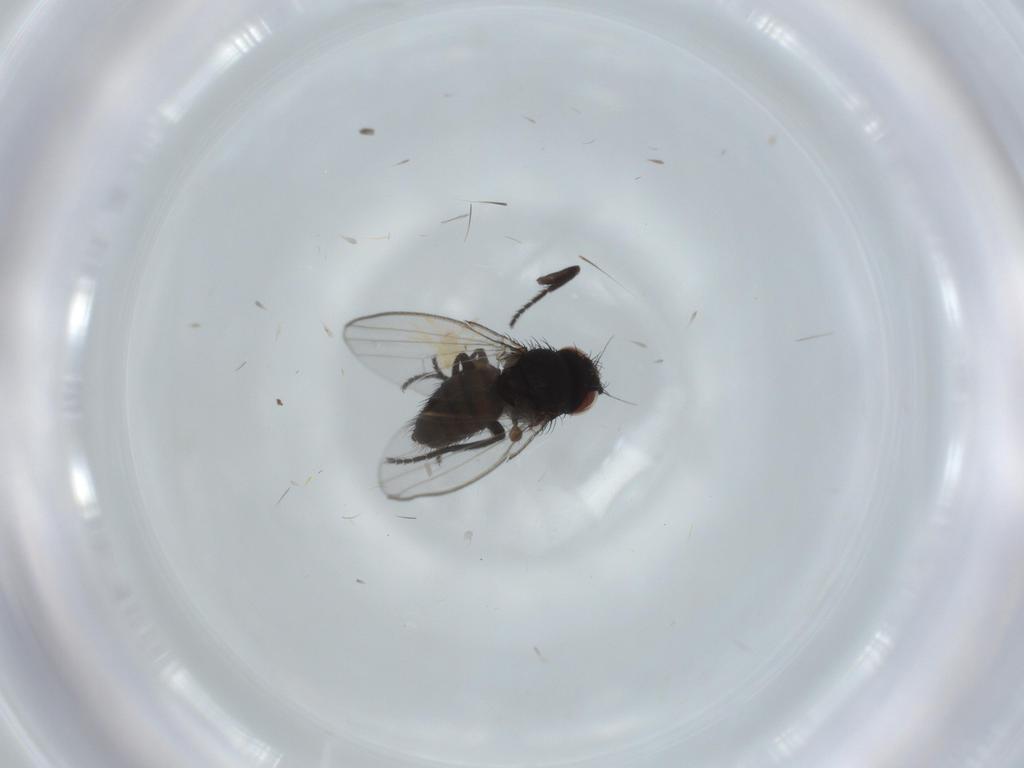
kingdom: Animalia
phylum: Arthropoda
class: Insecta
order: Diptera
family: Milichiidae
